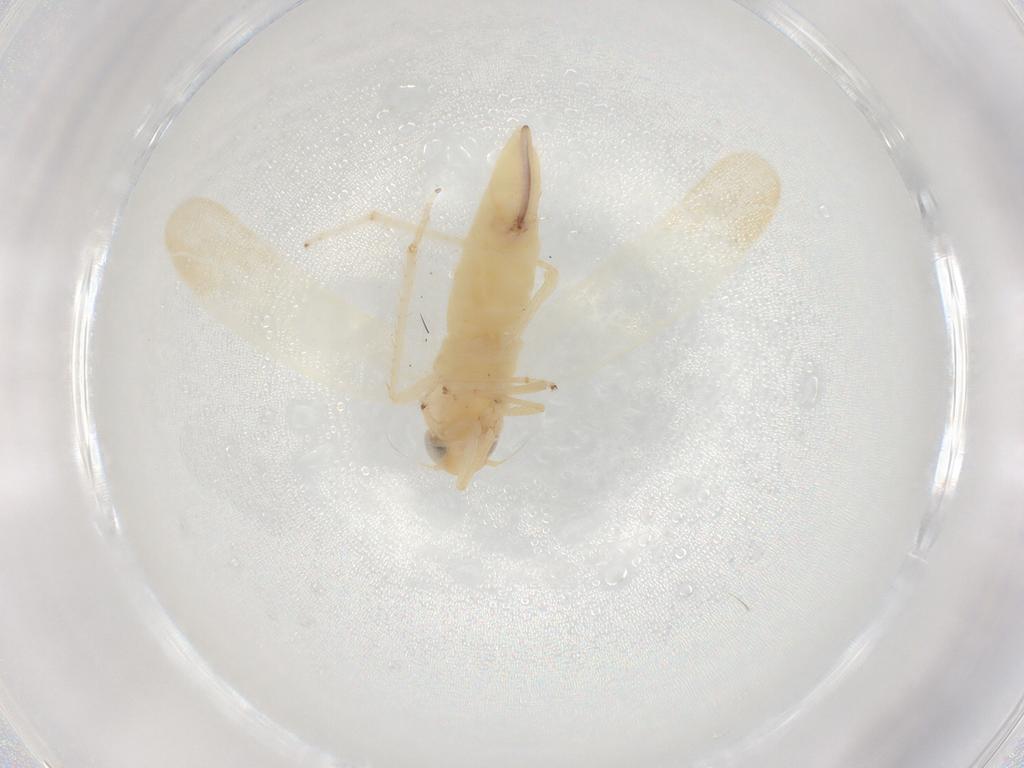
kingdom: Animalia
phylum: Arthropoda
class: Insecta
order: Hemiptera
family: Cicadellidae
